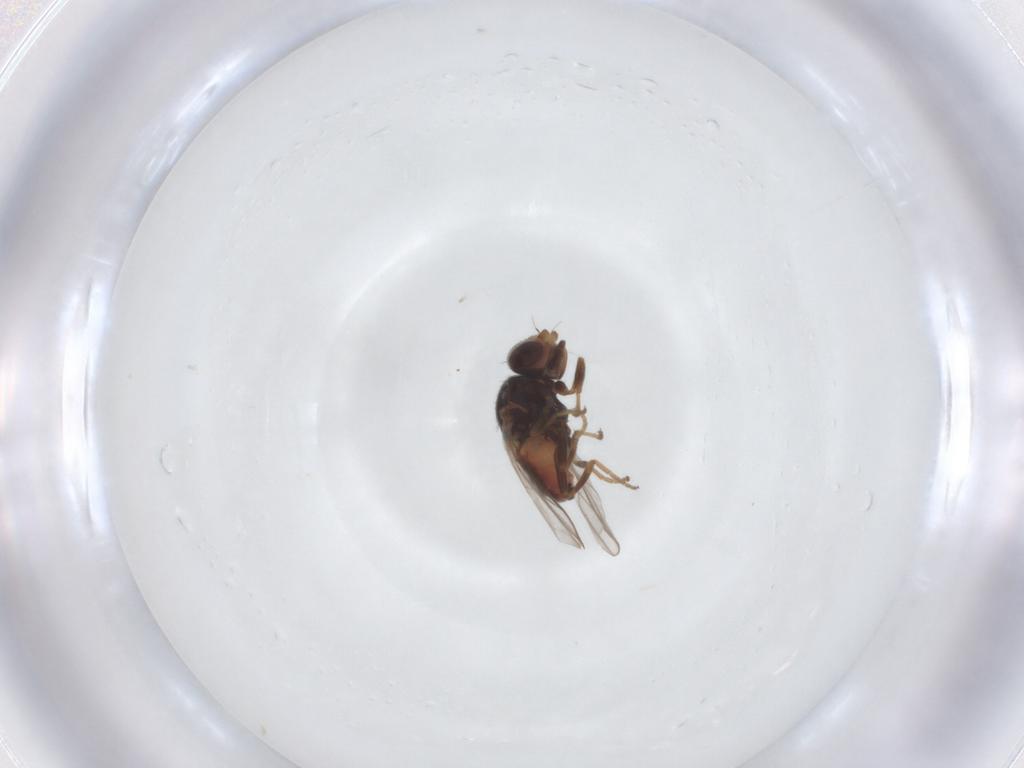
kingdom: Animalia
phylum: Arthropoda
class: Insecta
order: Diptera
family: Chloropidae
